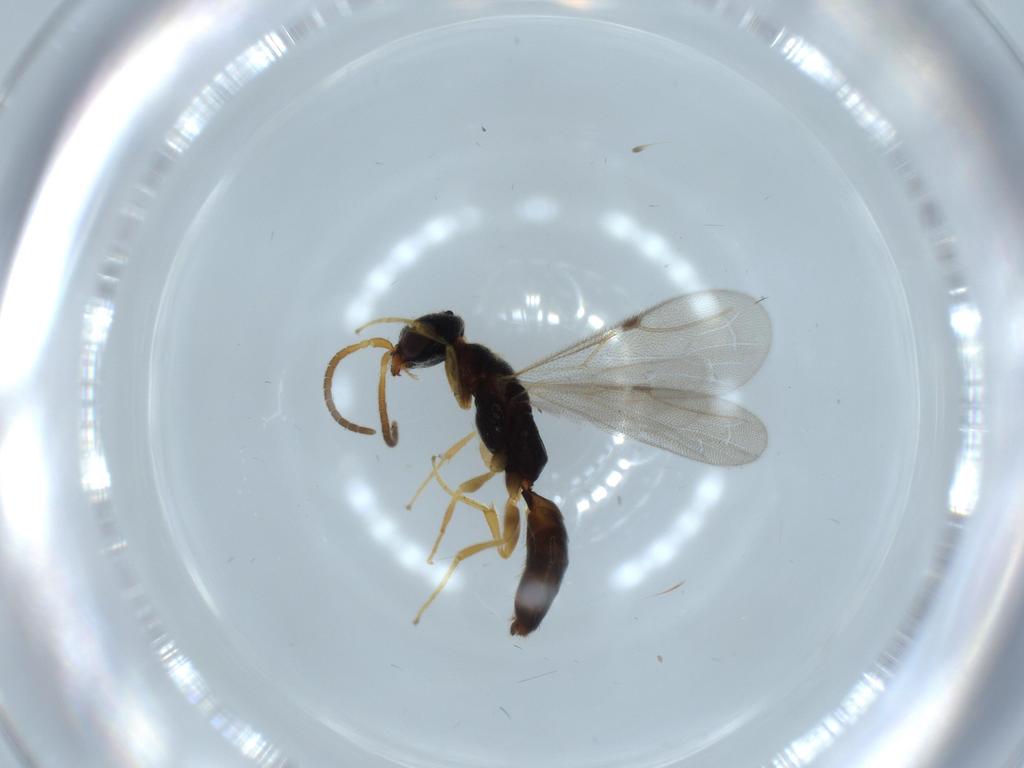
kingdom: Animalia
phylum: Arthropoda
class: Insecta
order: Hymenoptera
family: Bethylidae
